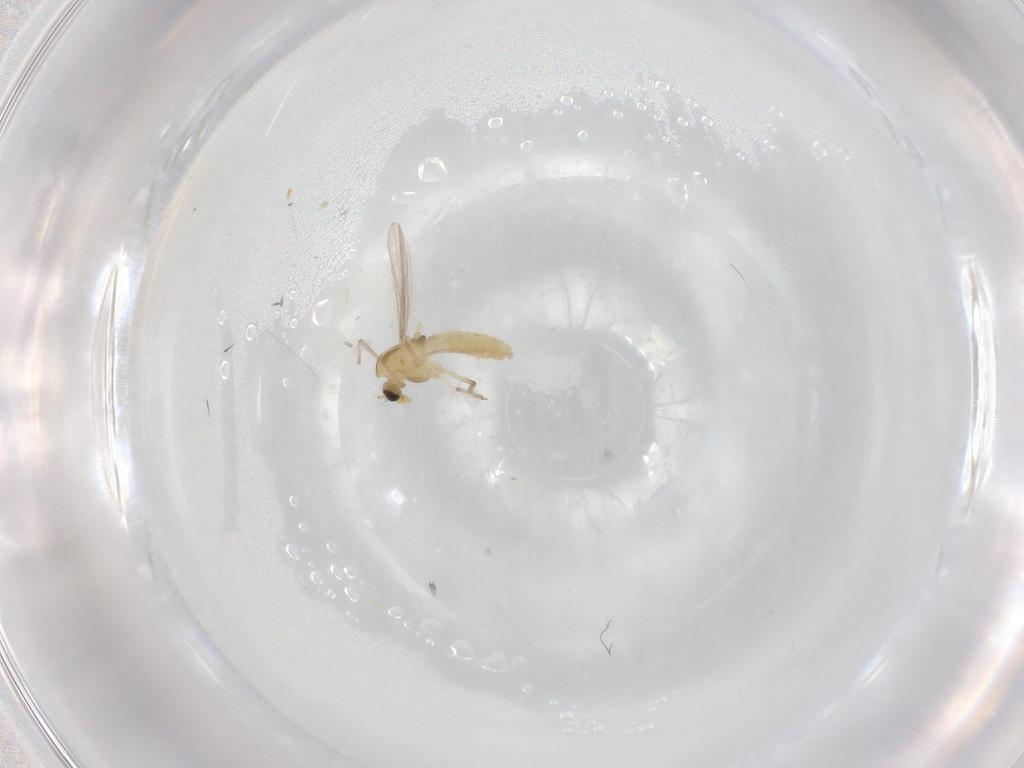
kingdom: Animalia
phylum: Arthropoda
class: Insecta
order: Diptera
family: Chironomidae
